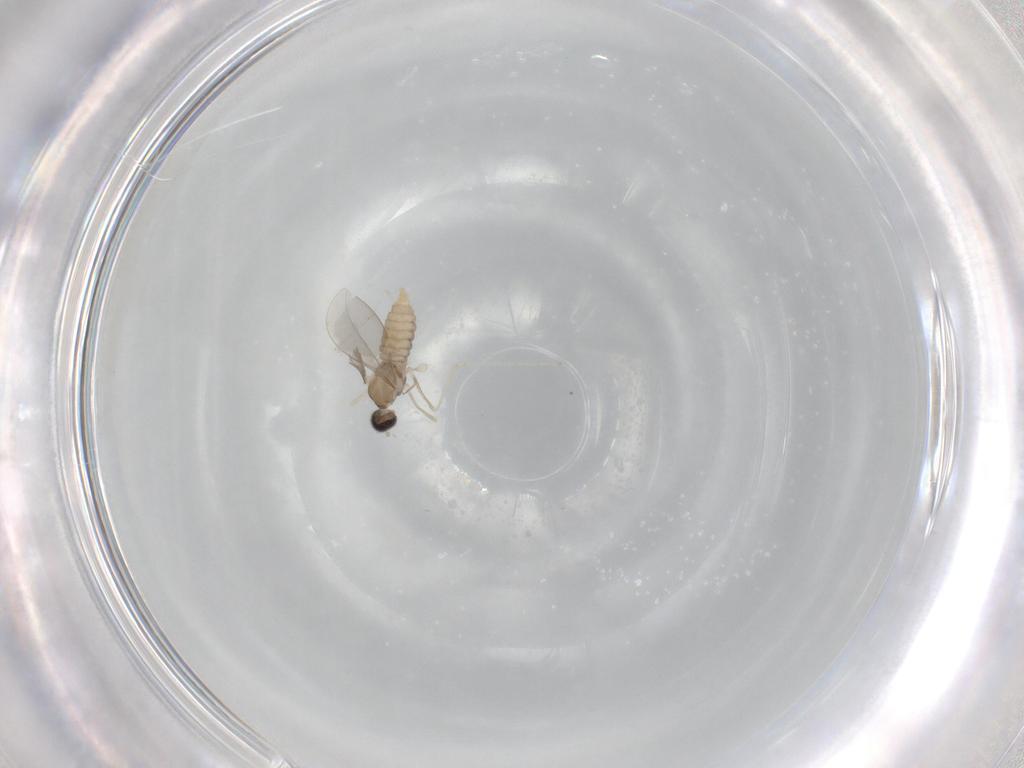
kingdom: Animalia
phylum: Arthropoda
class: Insecta
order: Diptera
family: Cecidomyiidae
